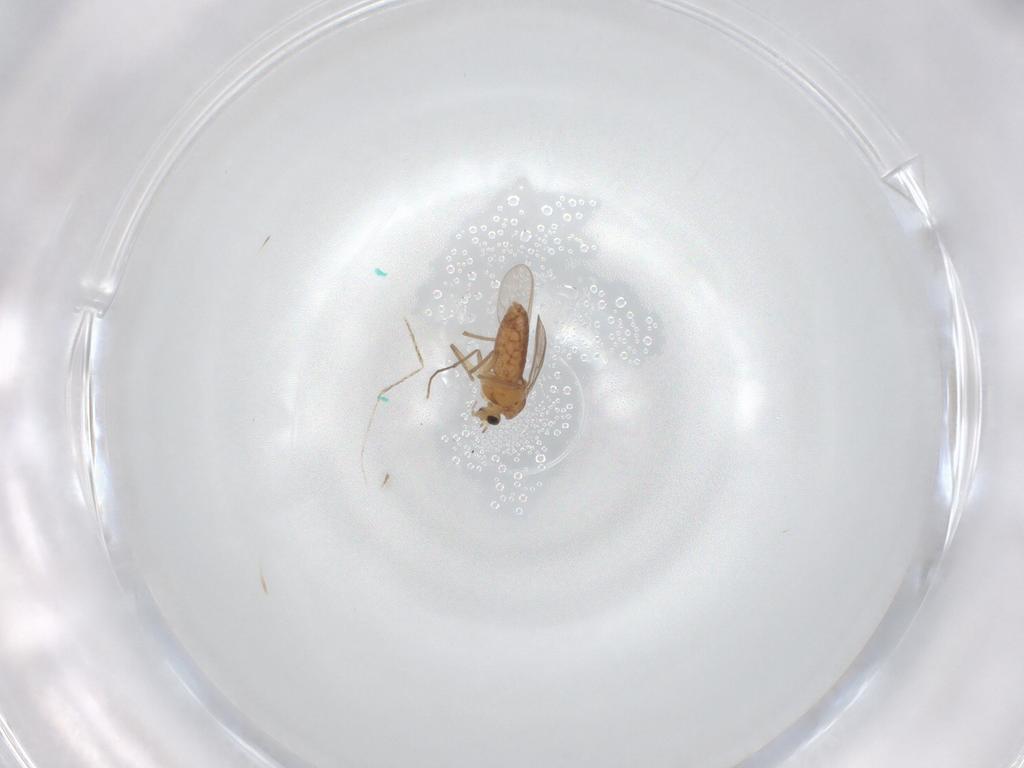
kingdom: Animalia
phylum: Arthropoda
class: Insecta
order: Diptera
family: Chironomidae
